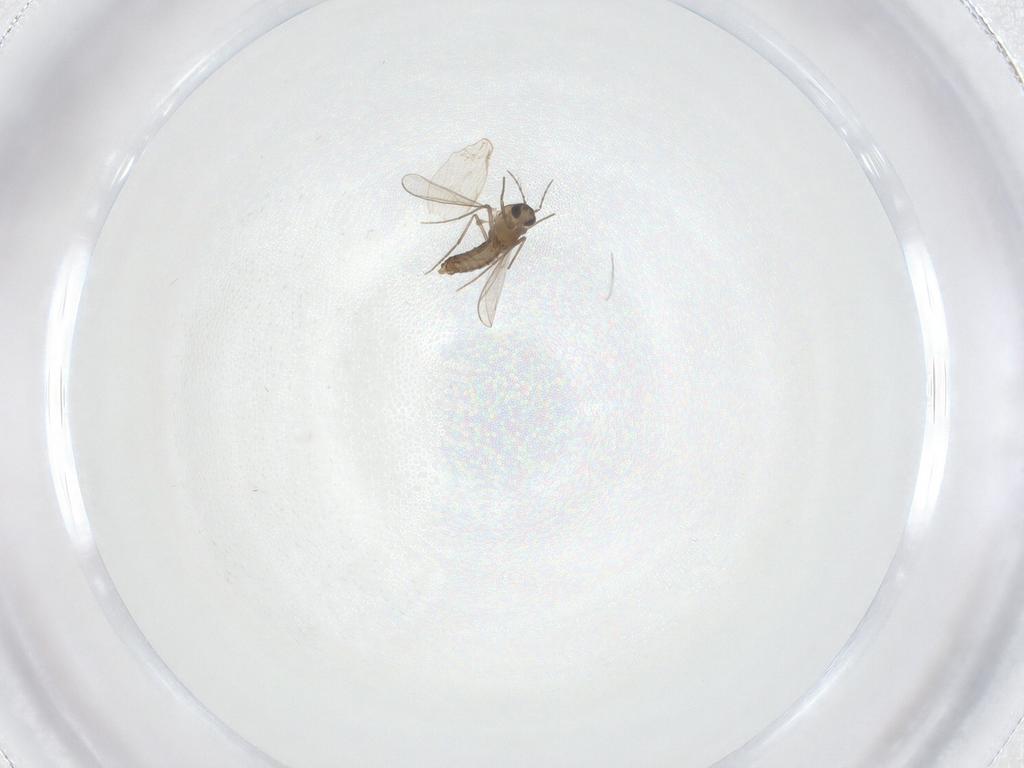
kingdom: Animalia
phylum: Arthropoda
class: Insecta
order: Diptera
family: Chironomidae
